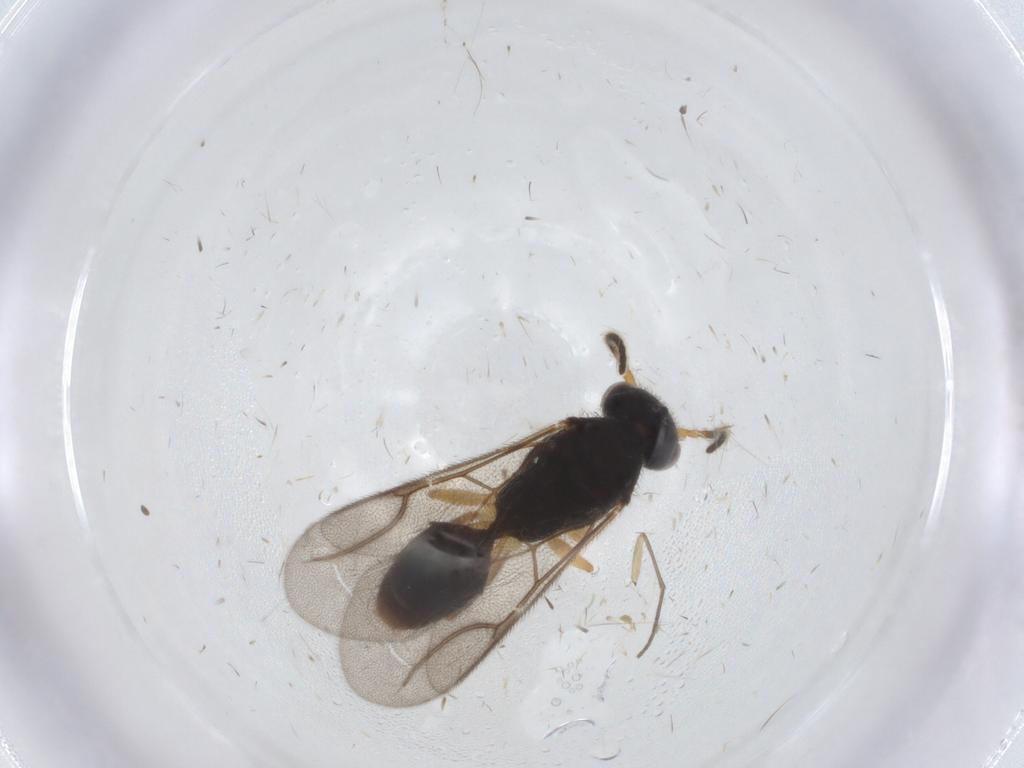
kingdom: Animalia
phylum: Arthropoda
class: Insecta
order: Hymenoptera
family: Bethylidae
